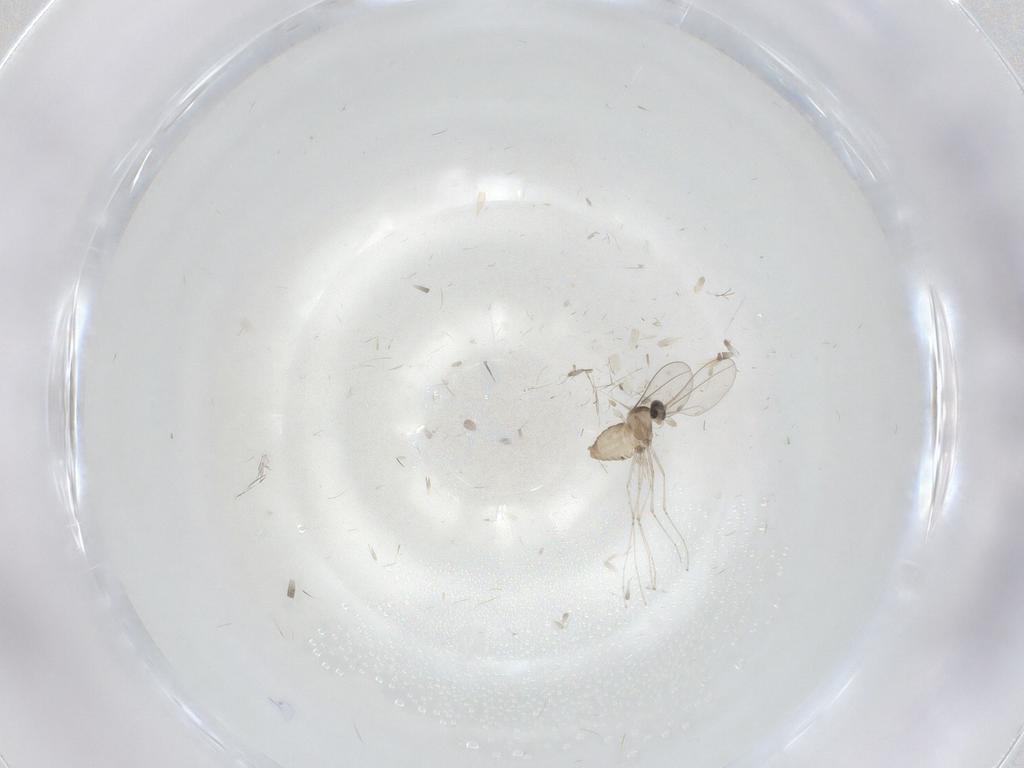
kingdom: Animalia
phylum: Arthropoda
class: Insecta
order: Diptera
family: Cecidomyiidae
